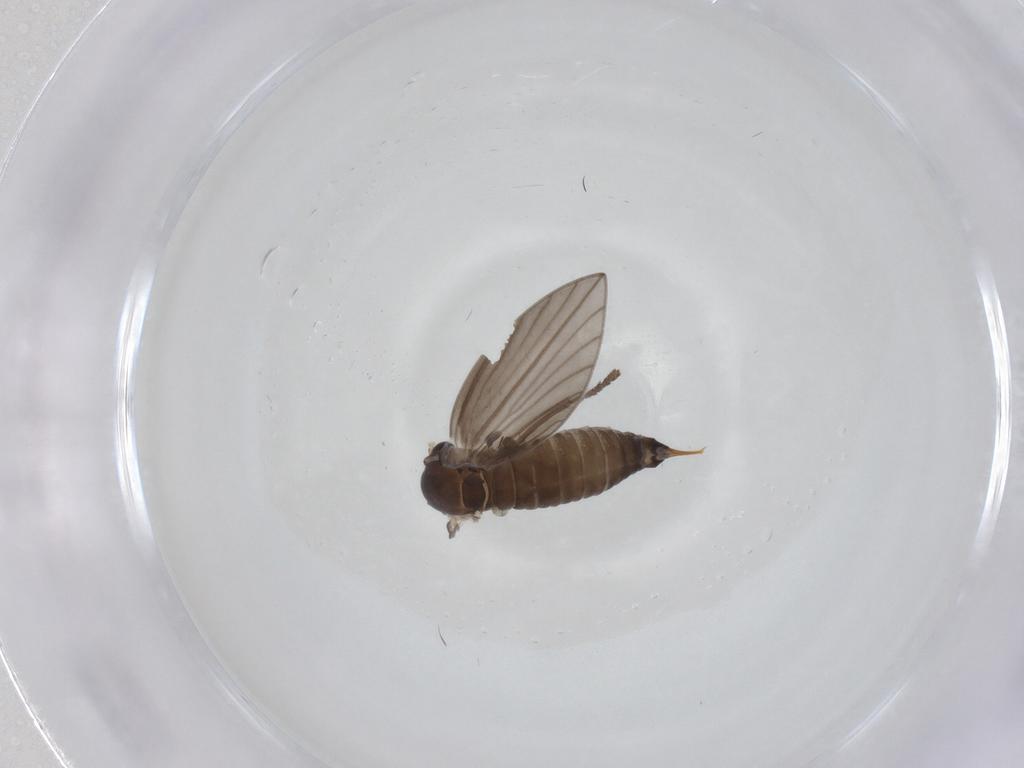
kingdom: Animalia
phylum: Arthropoda
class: Insecta
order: Diptera
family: Psychodidae
